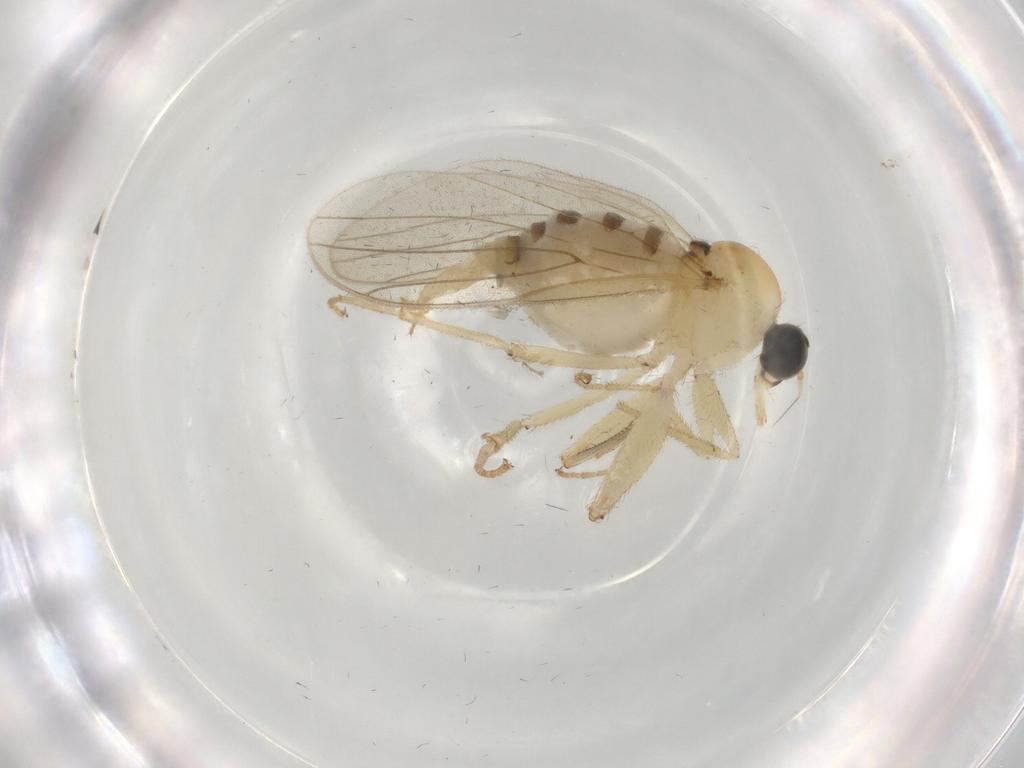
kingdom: Animalia
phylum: Arthropoda
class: Insecta
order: Diptera
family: Hybotidae
